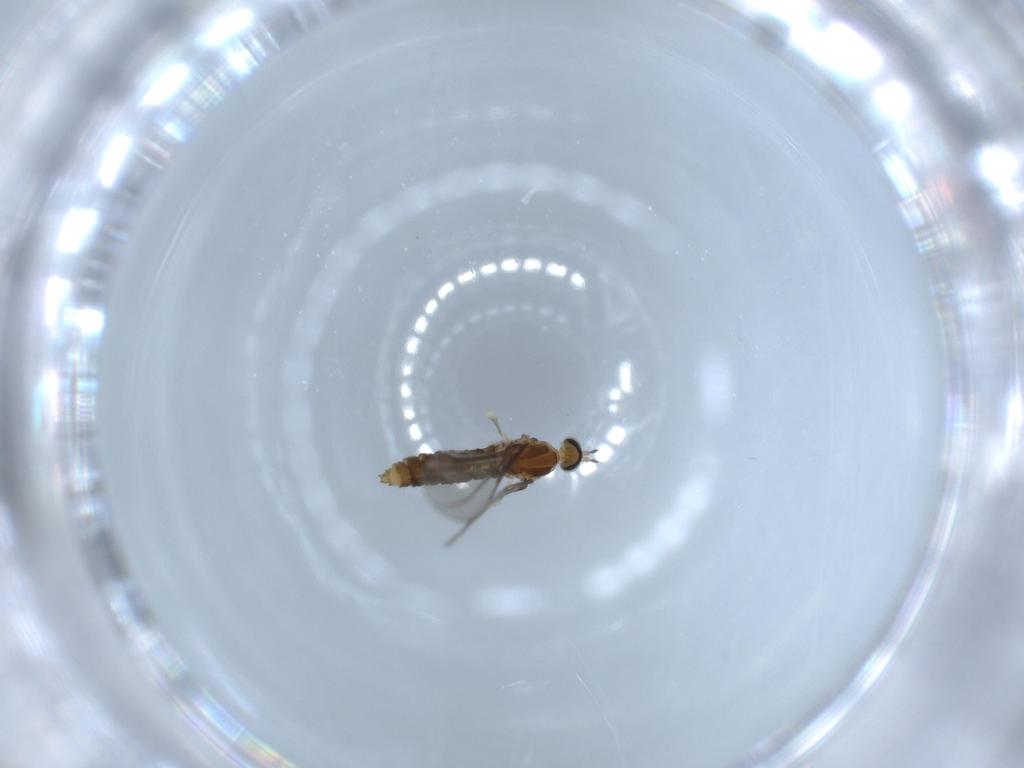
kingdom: Animalia
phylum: Arthropoda
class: Insecta
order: Diptera
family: Cecidomyiidae
